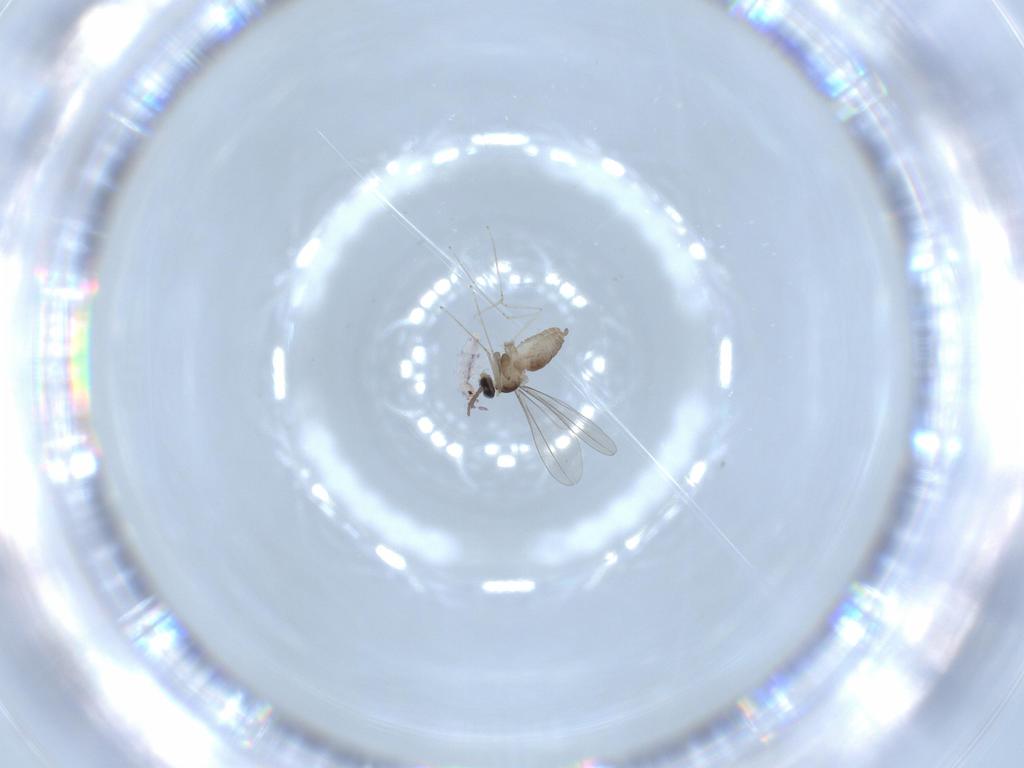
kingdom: Animalia
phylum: Arthropoda
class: Insecta
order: Diptera
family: Cecidomyiidae
